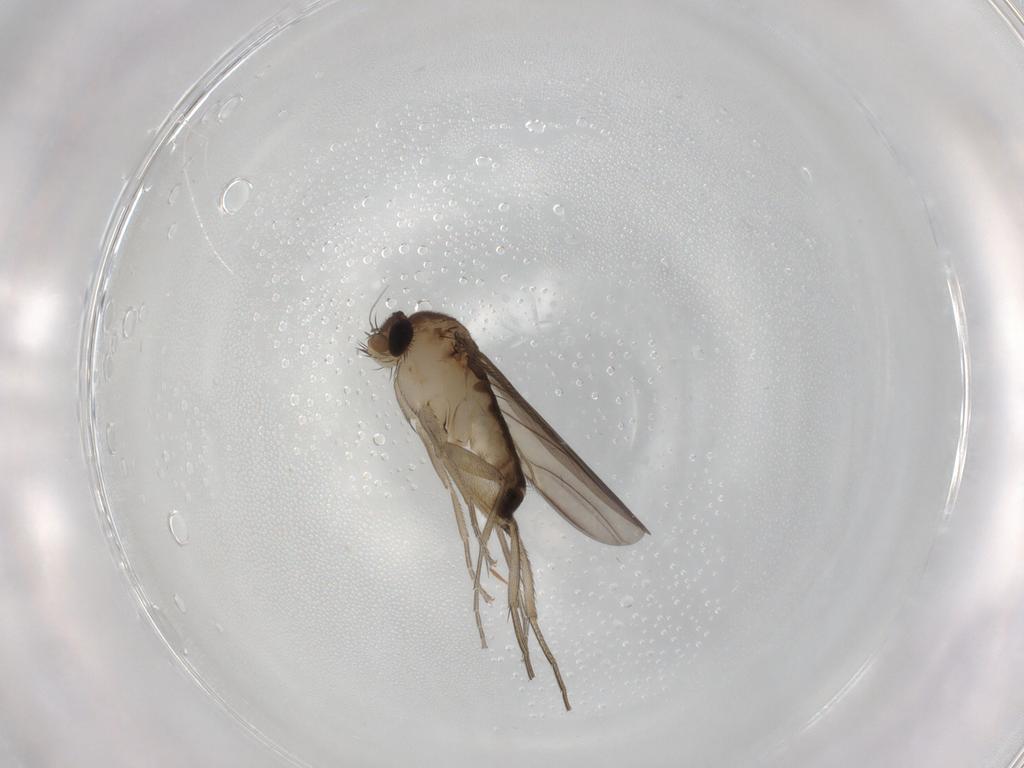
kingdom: Animalia
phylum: Arthropoda
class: Insecta
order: Diptera
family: Phoridae
